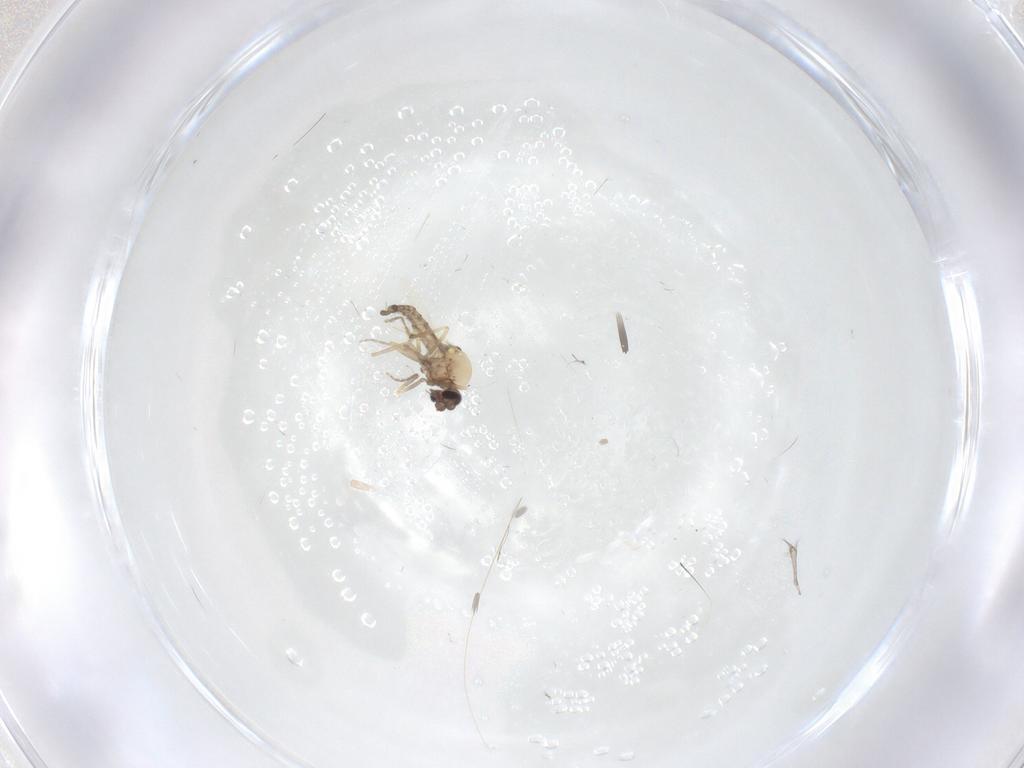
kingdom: Animalia
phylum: Arthropoda
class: Insecta
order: Diptera
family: Ceratopogonidae
